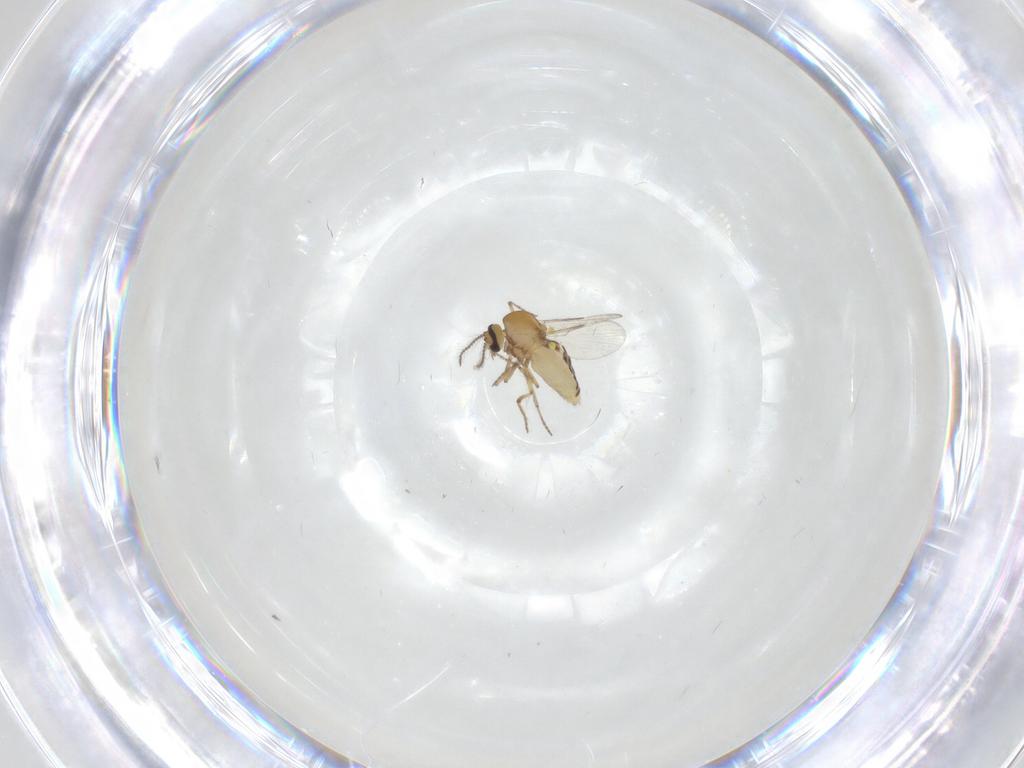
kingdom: Animalia
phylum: Arthropoda
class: Insecta
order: Diptera
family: Ceratopogonidae
